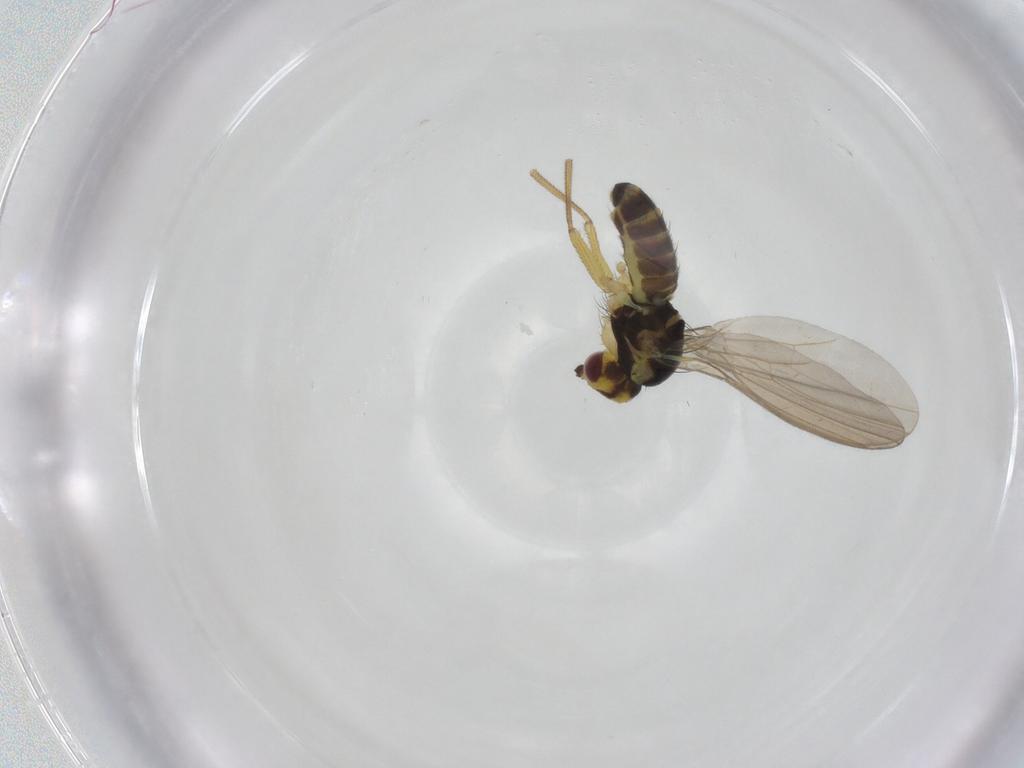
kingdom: Animalia
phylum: Arthropoda
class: Insecta
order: Diptera
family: Agromyzidae
